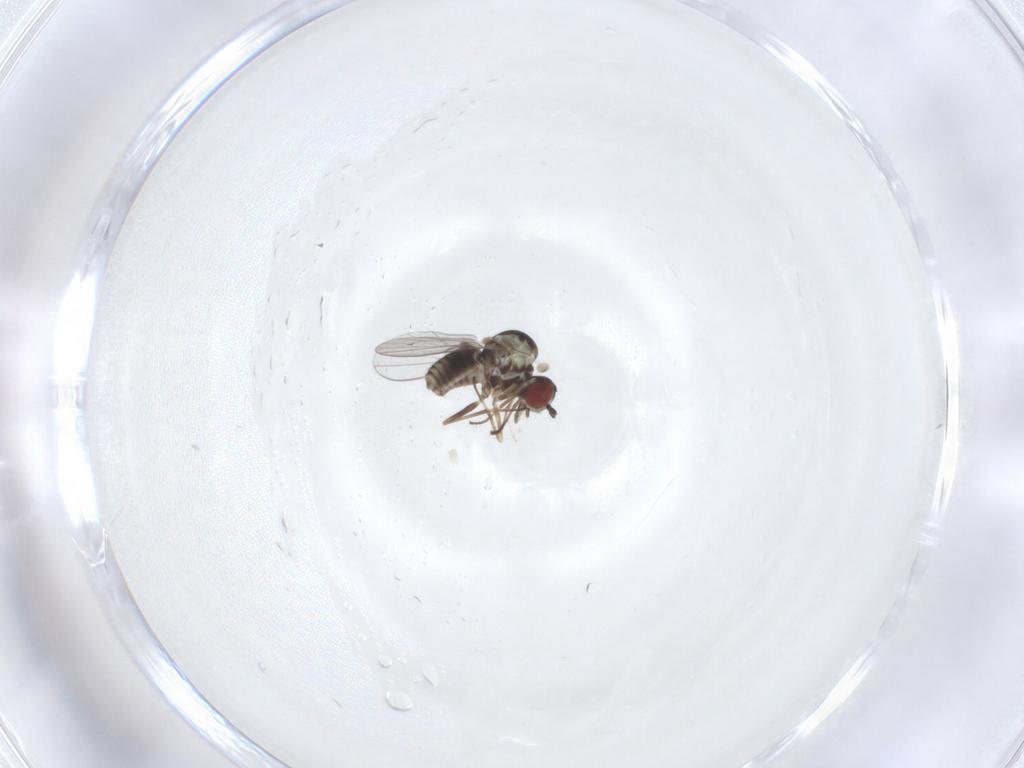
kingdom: Animalia
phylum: Arthropoda
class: Insecta
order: Diptera
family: Mythicomyiidae
